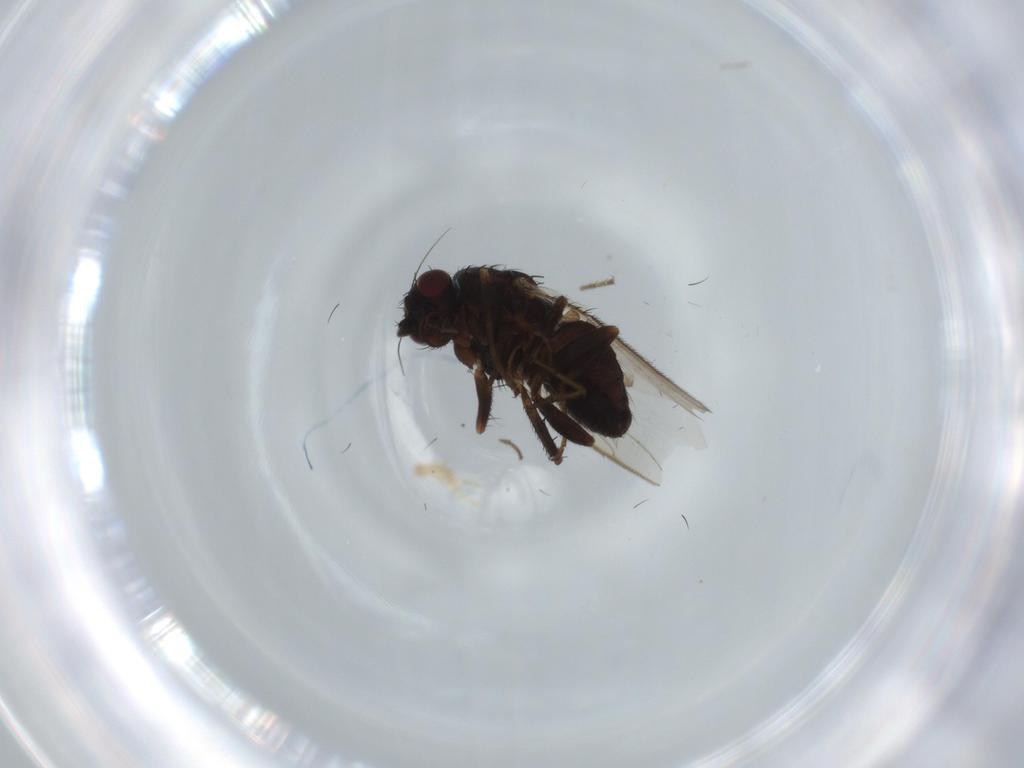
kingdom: Animalia
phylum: Arthropoda
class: Insecta
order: Diptera
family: Sphaeroceridae
